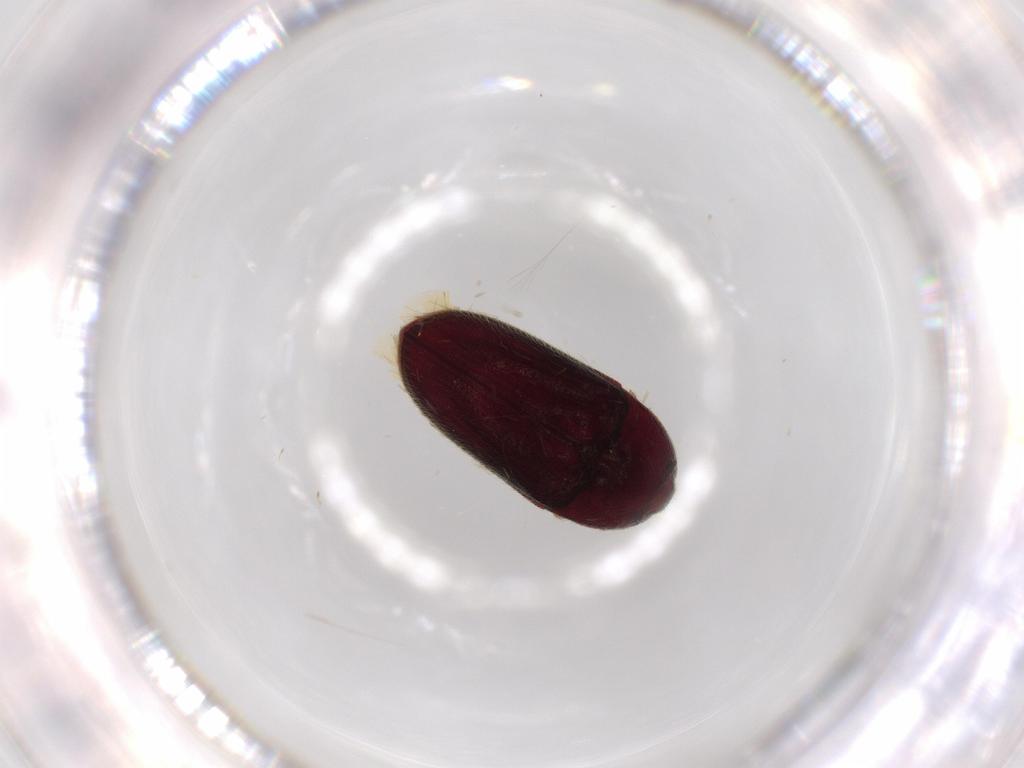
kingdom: Animalia
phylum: Arthropoda
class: Insecta
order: Coleoptera
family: Throscidae
